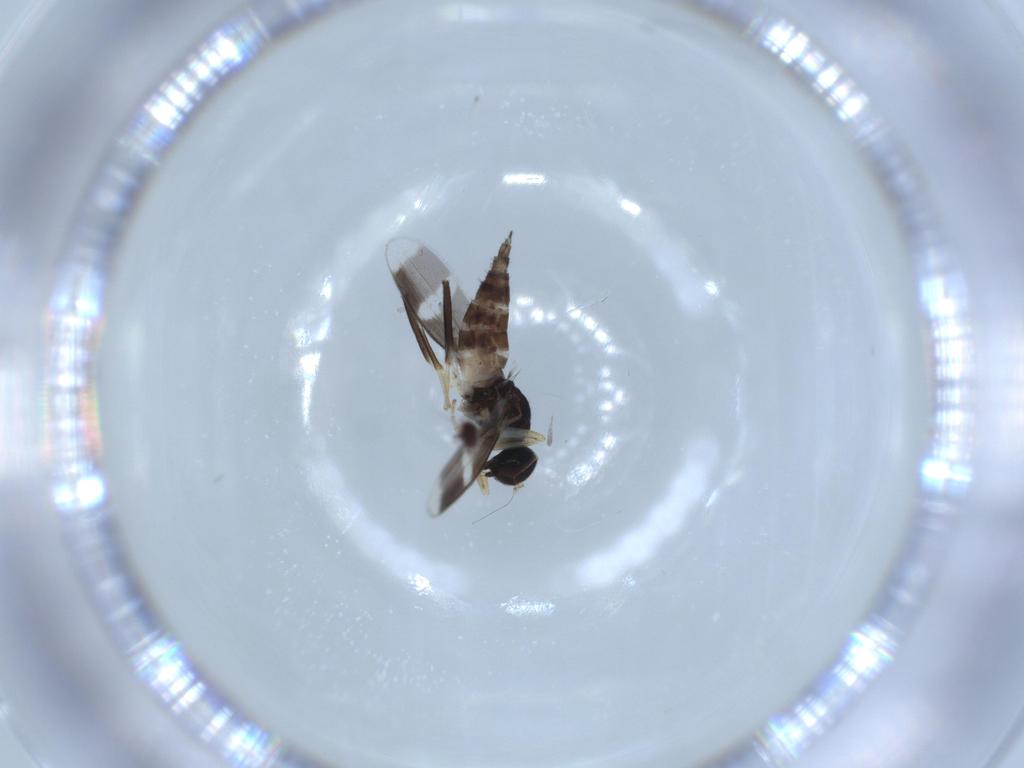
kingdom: Animalia
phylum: Arthropoda
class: Insecta
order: Diptera
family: Hybotidae
